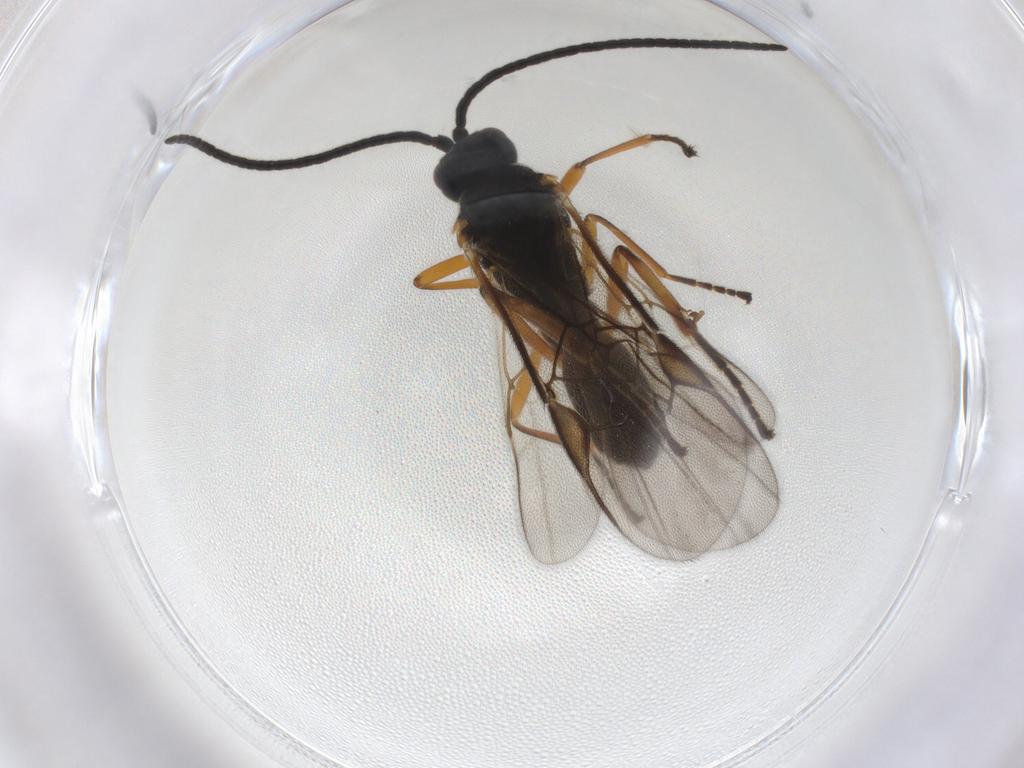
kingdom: Animalia
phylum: Arthropoda
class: Insecta
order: Hymenoptera
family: Braconidae
